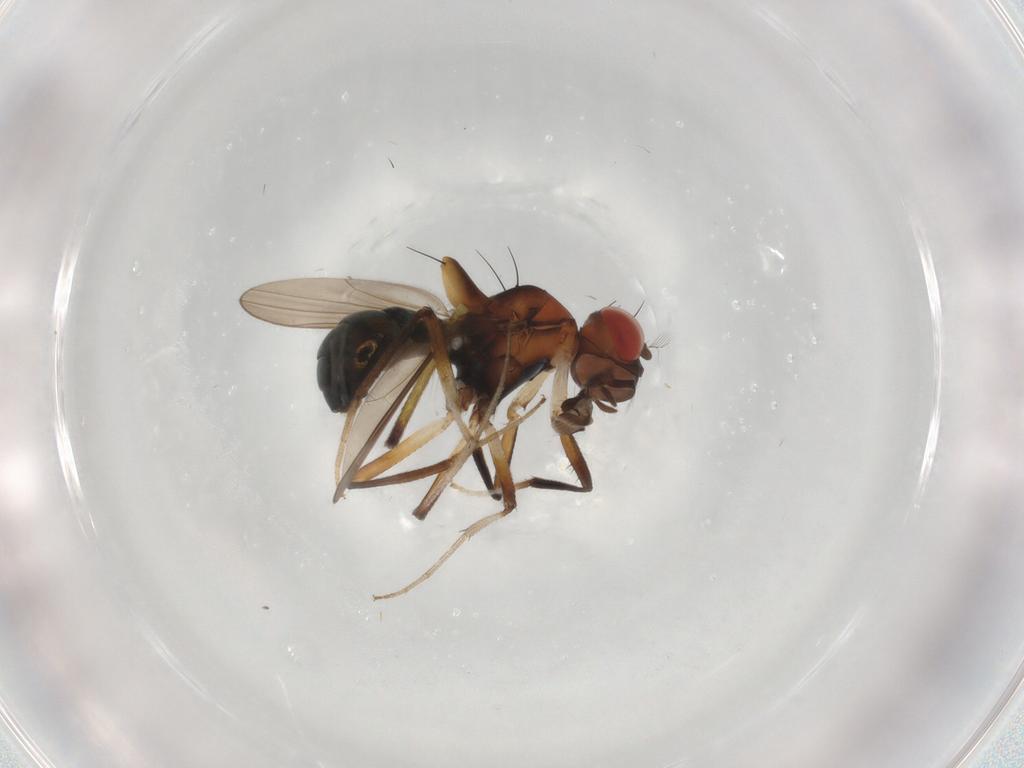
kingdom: Animalia
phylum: Arthropoda
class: Insecta
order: Diptera
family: Drosophilidae
